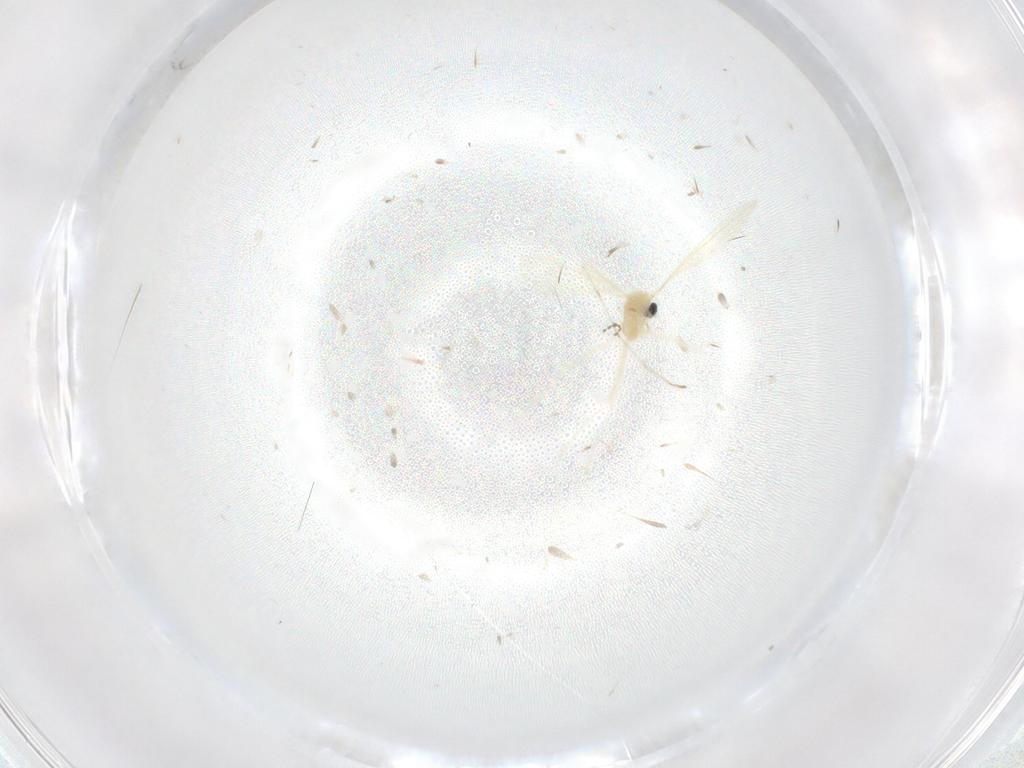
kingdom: Animalia
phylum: Arthropoda
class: Insecta
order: Diptera
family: Cecidomyiidae
